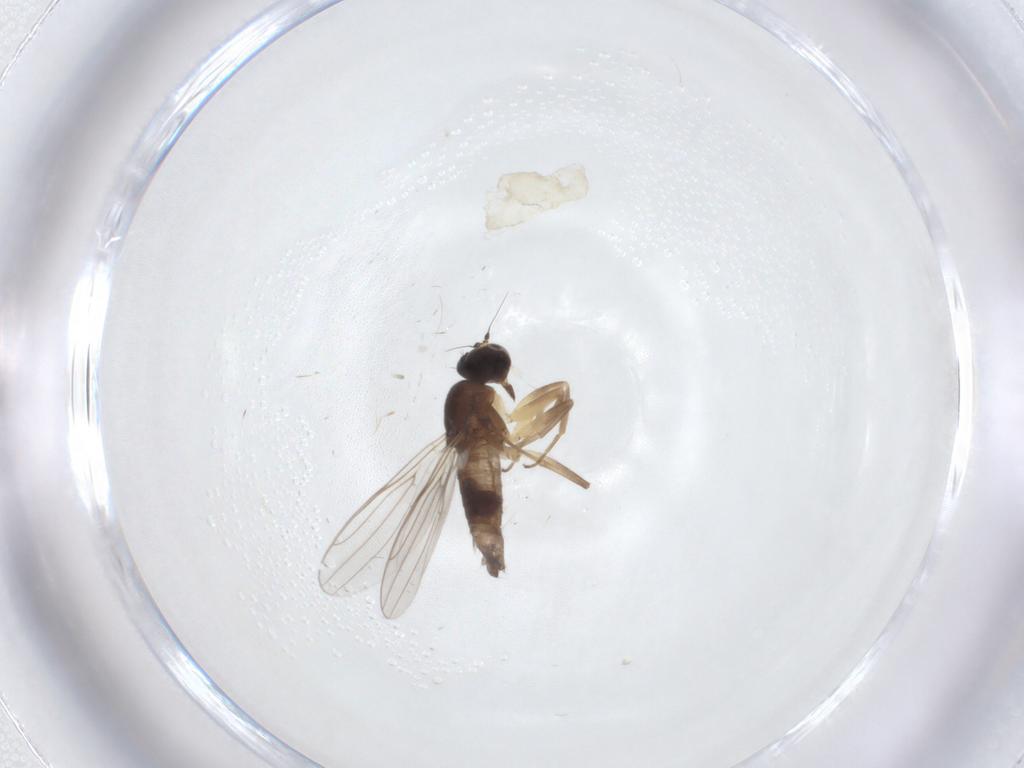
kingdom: Animalia
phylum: Arthropoda
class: Insecta
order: Diptera
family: Hybotidae
